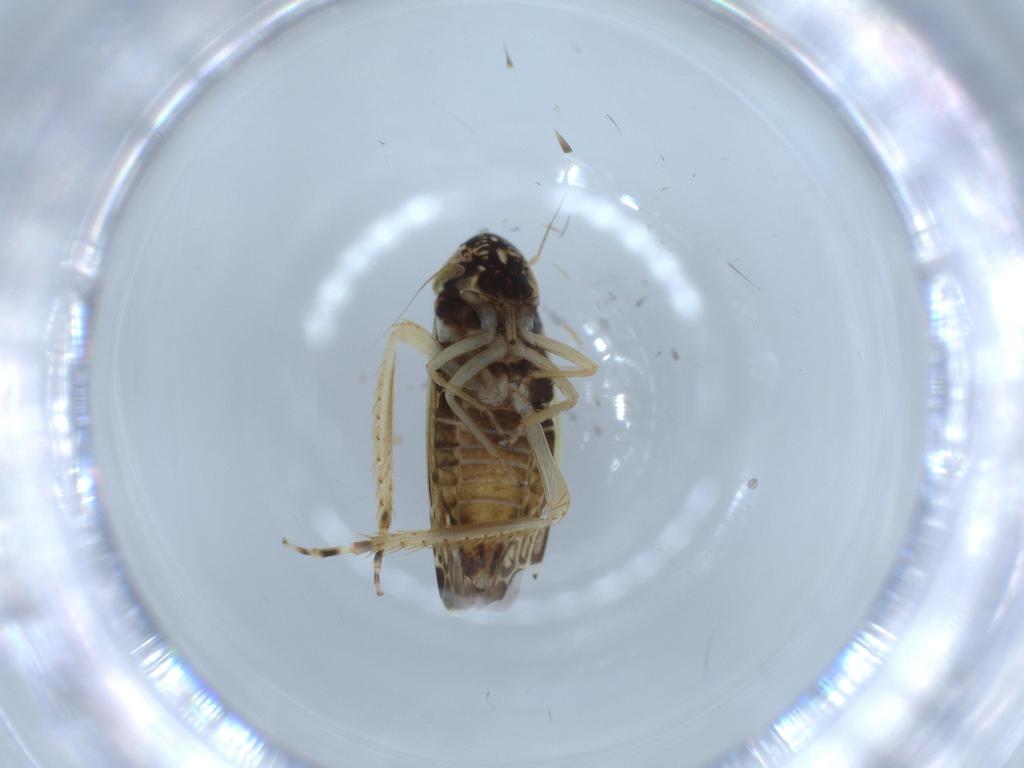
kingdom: Animalia
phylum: Arthropoda
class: Insecta
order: Hemiptera
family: Cicadellidae
